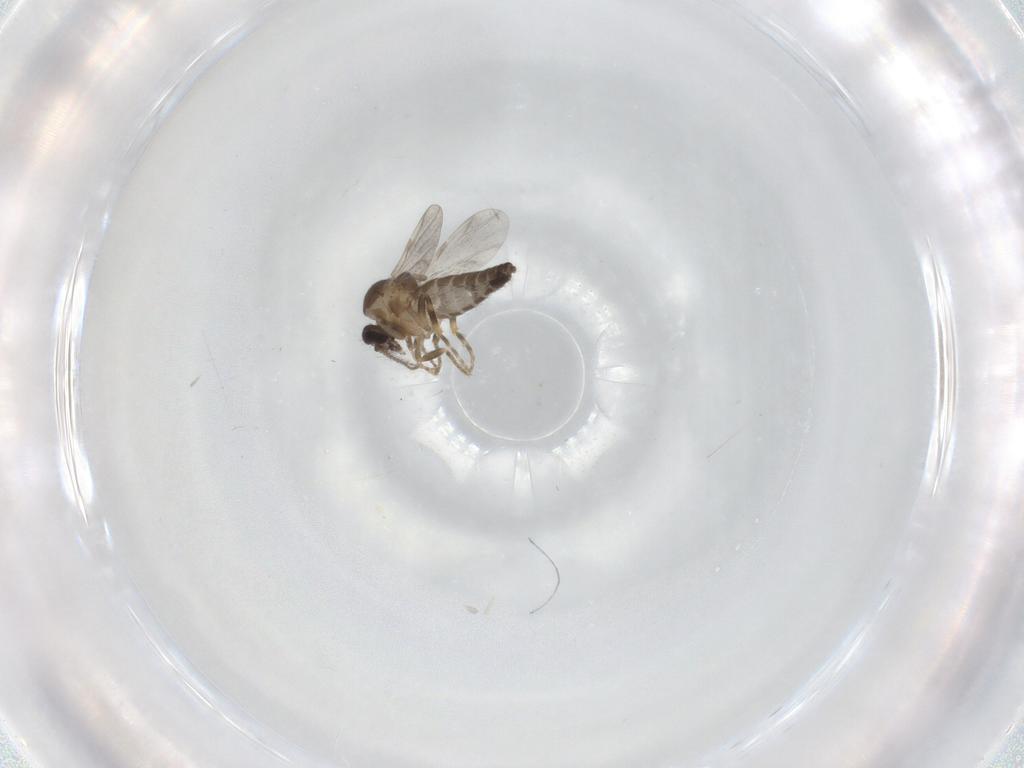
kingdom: Animalia
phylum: Arthropoda
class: Insecta
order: Diptera
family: Ceratopogonidae
